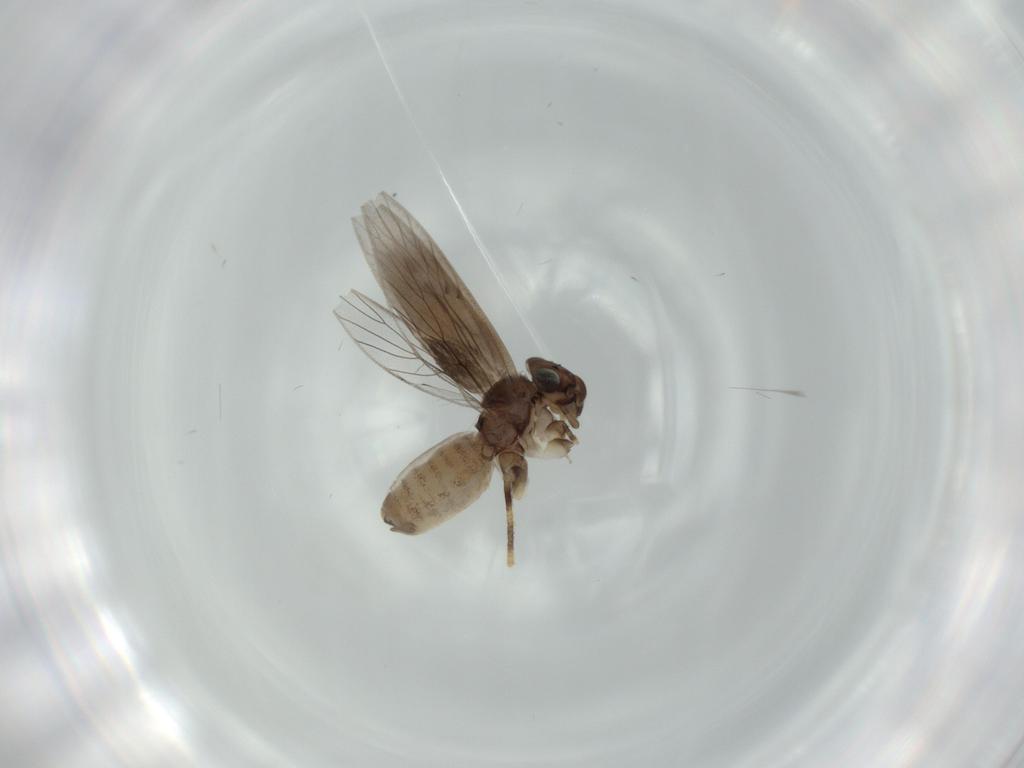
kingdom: Animalia
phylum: Arthropoda
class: Insecta
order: Psocodea
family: Lepidopsocidae
